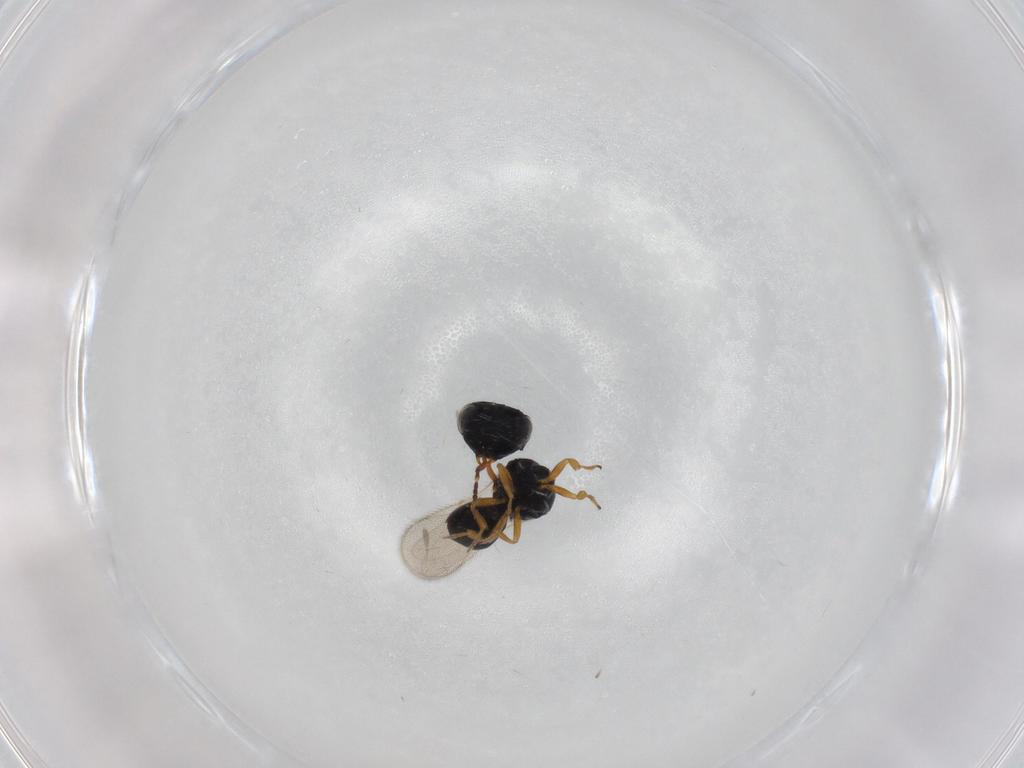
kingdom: Animalia
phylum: Arthropoda
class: Insecta
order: Hymenoptera
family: Scelionidae
